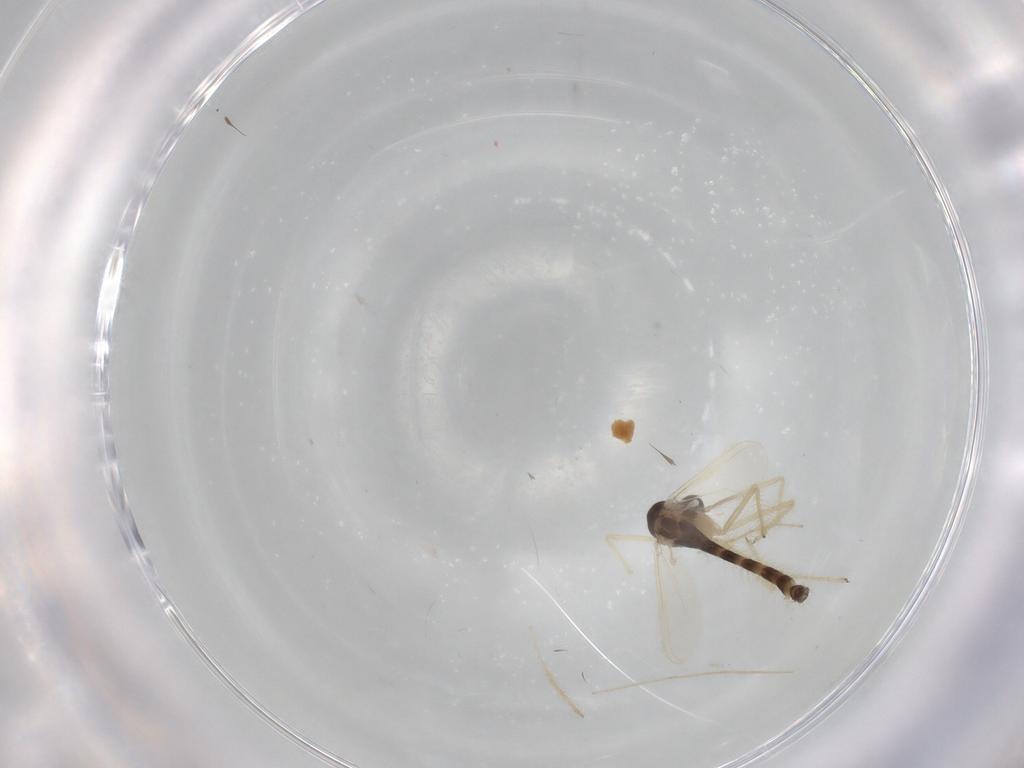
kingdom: Animalia
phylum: Arthropoda
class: Insecta
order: Diptera
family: Chironomidae
